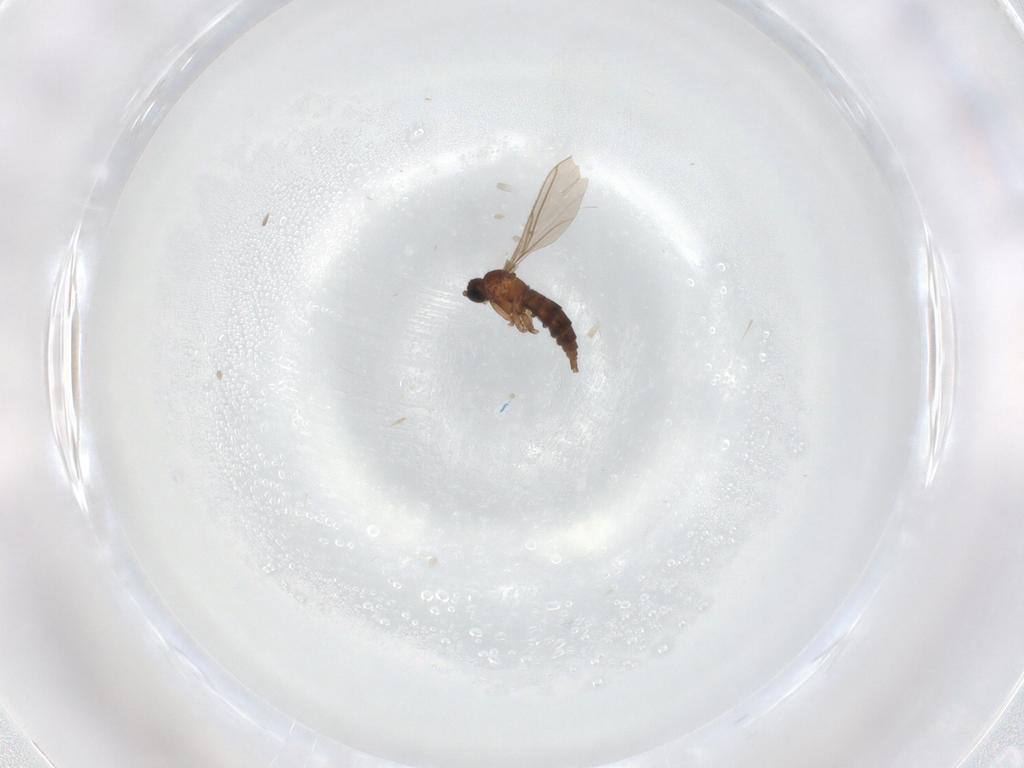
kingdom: Animalia
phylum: Arthropoda
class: Insecta
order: Diptera
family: Sciaridae
